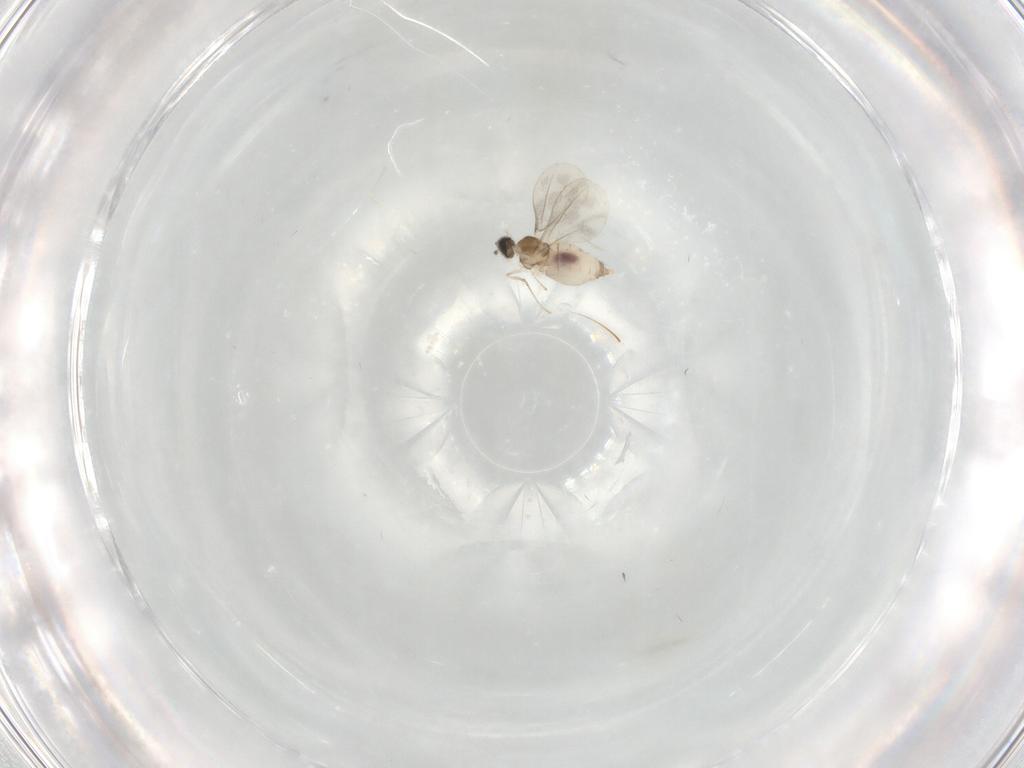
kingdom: Animalia
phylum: Arthropoda
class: Insecta
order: Diptera
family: Cecidomyiidae
